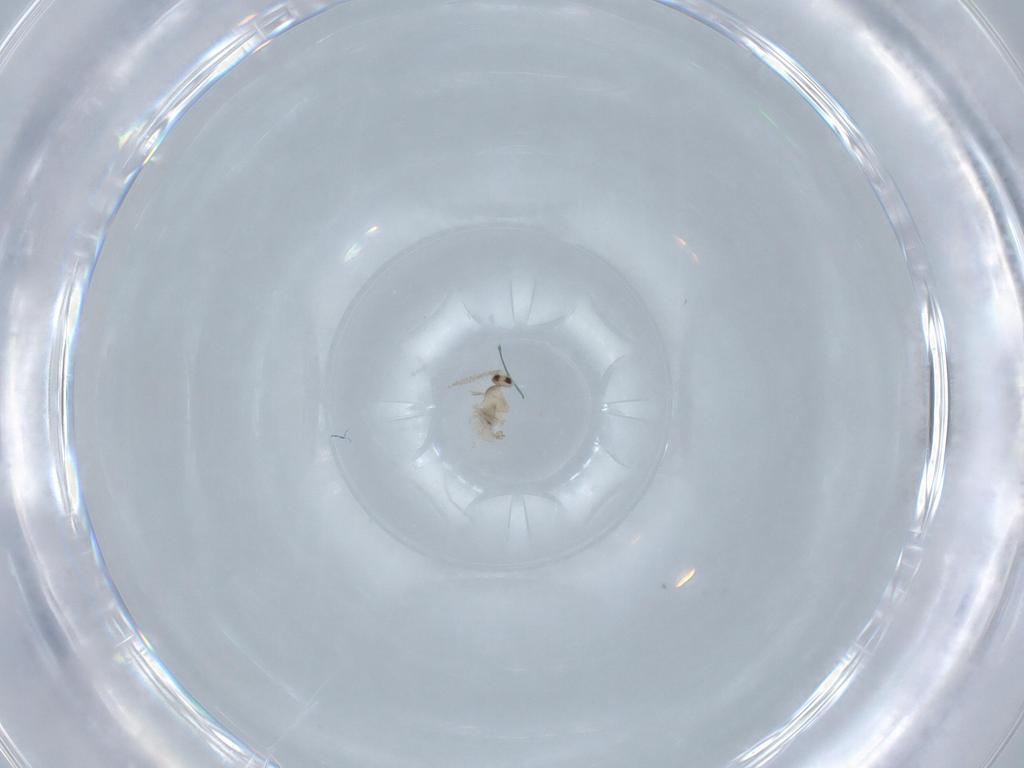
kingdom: Animalia
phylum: Arthropoda
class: Insecta
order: Diptera
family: Cecidomyiidae
